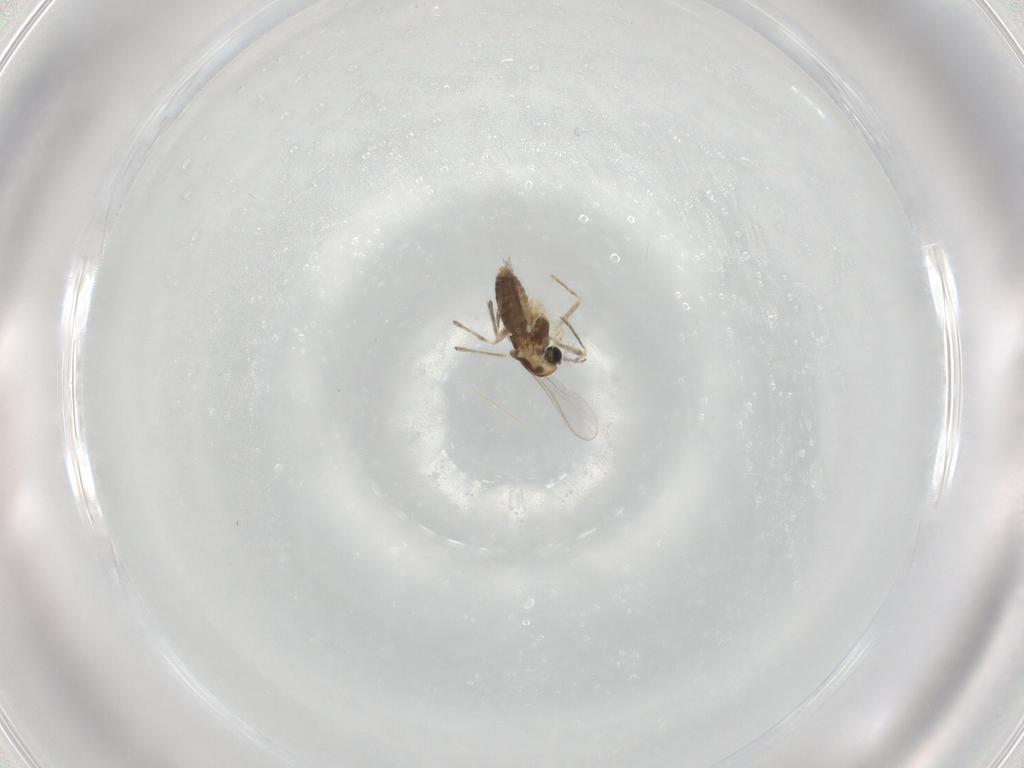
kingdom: Animalia
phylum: Arthropoda
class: Insecta
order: Diptera
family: Chironomidae
